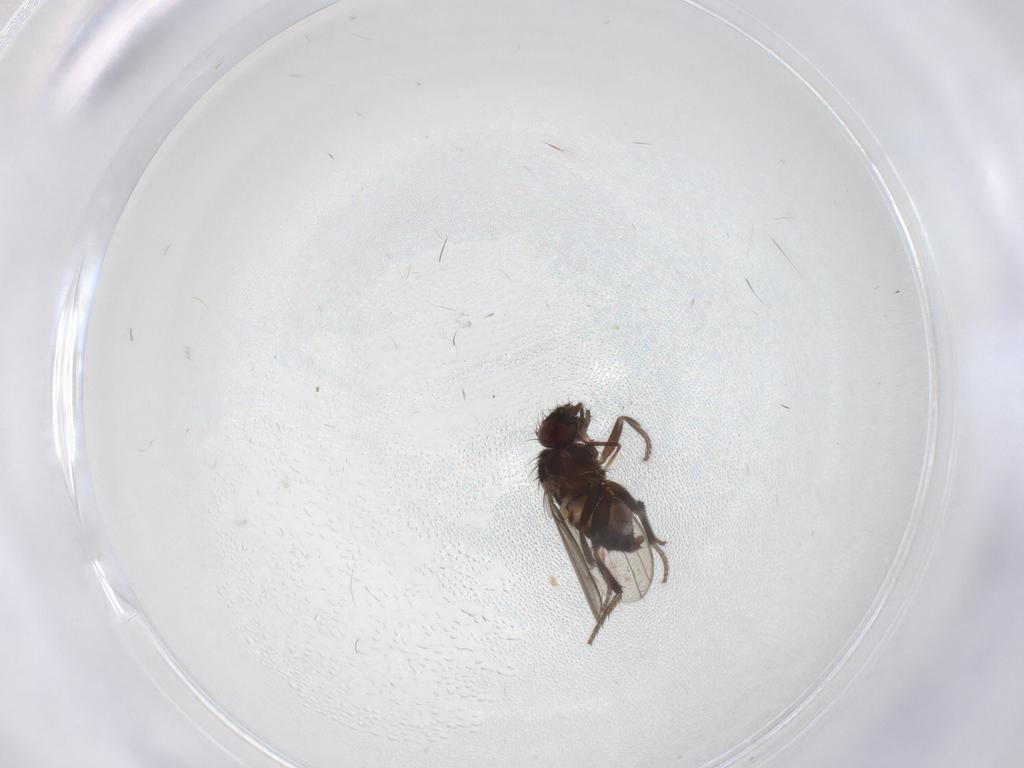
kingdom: Animalia
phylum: Arthropoda
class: Insecta
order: Diptera
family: Milichiidae
